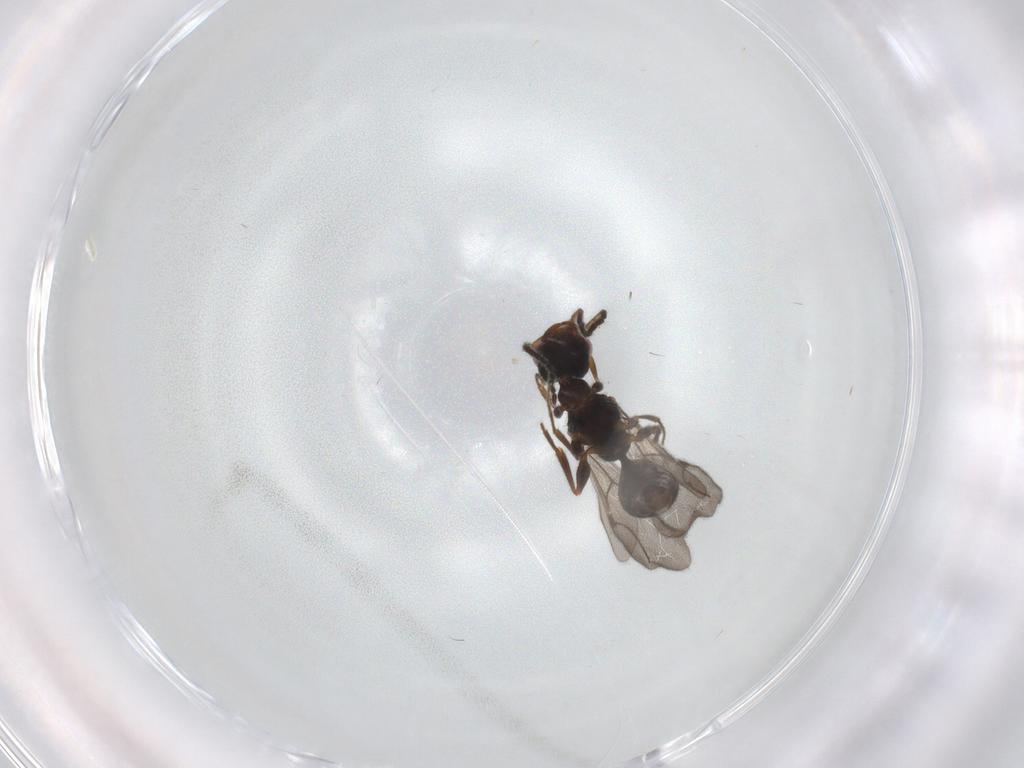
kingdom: Animalia
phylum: Arthropoda
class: Insecta
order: Hymenoptera
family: Bethylidae
